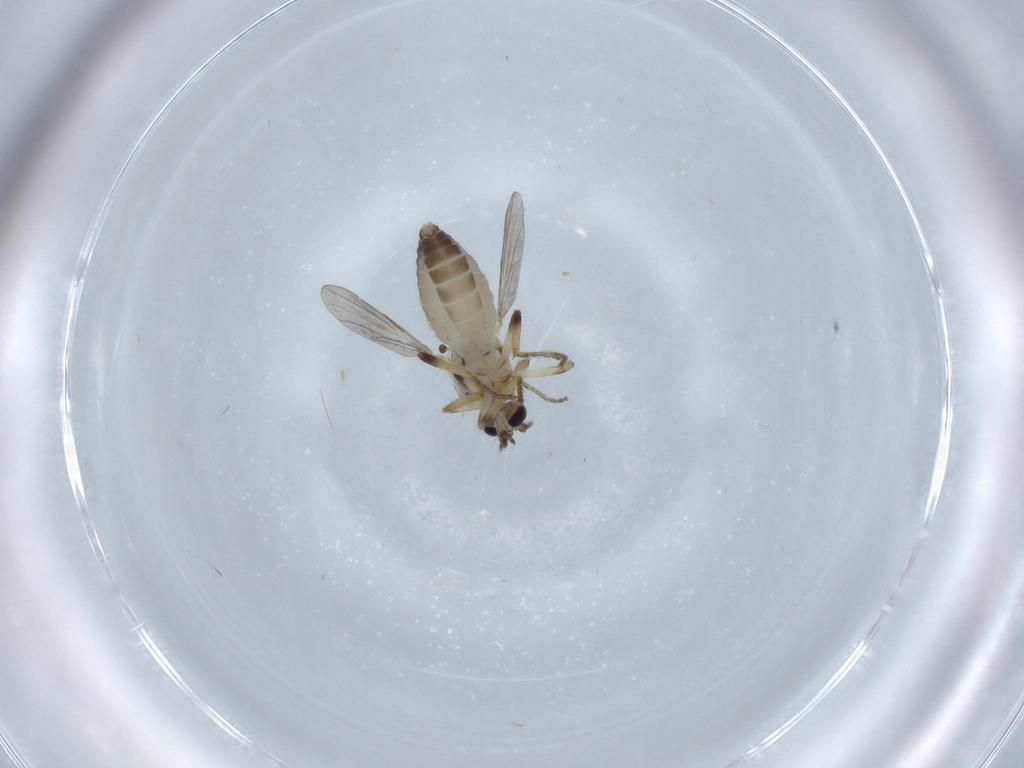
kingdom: Animalia
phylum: Arthropoda
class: Insecta
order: Diptera
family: Ceratopogonidae
